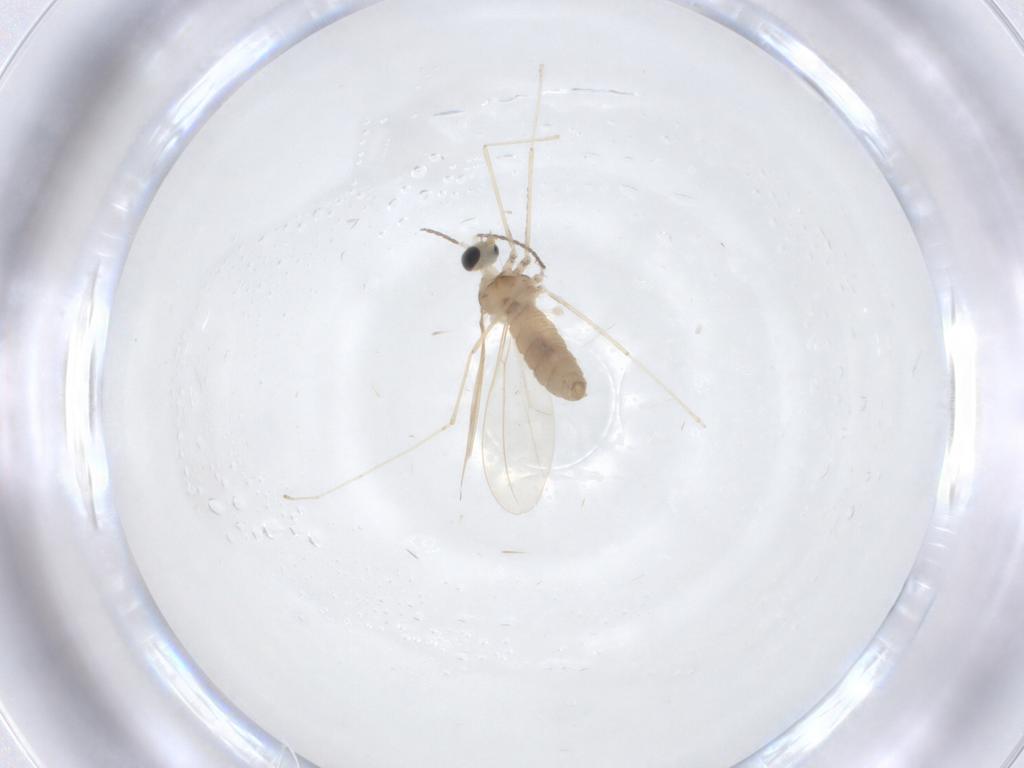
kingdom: Animalia
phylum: Arthropoda
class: Insecta
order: Diptera
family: Cecidomyiidae
